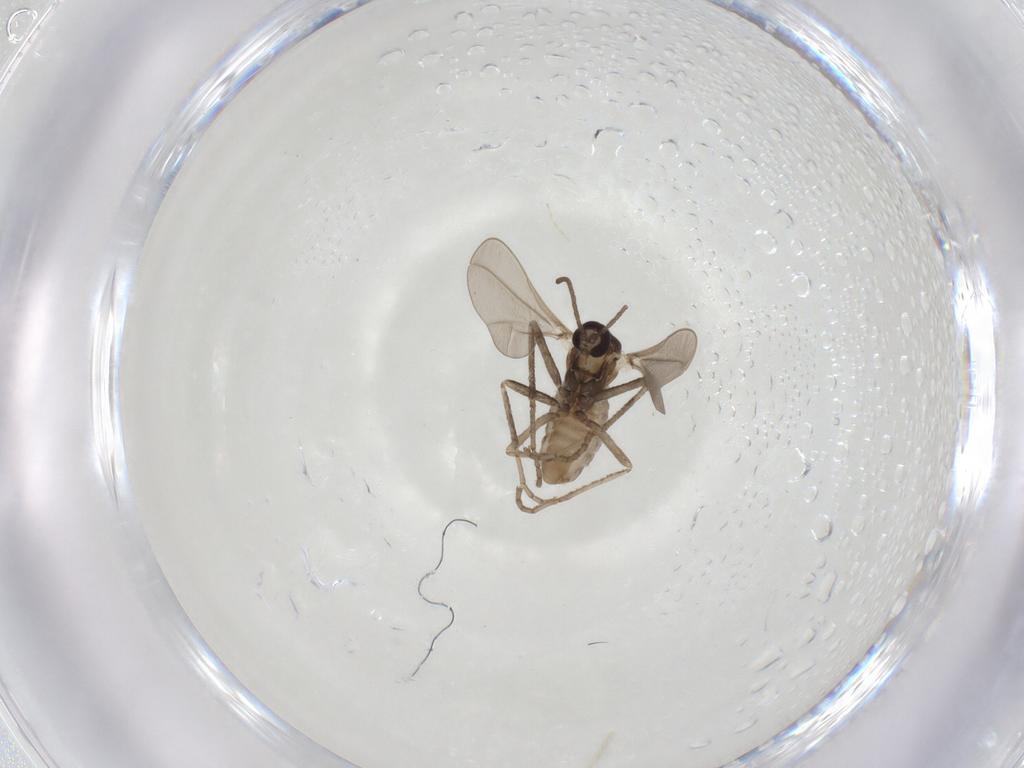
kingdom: Animalia
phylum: Arthropoda
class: Insecta
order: Diptera
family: Cecidomyiidae
